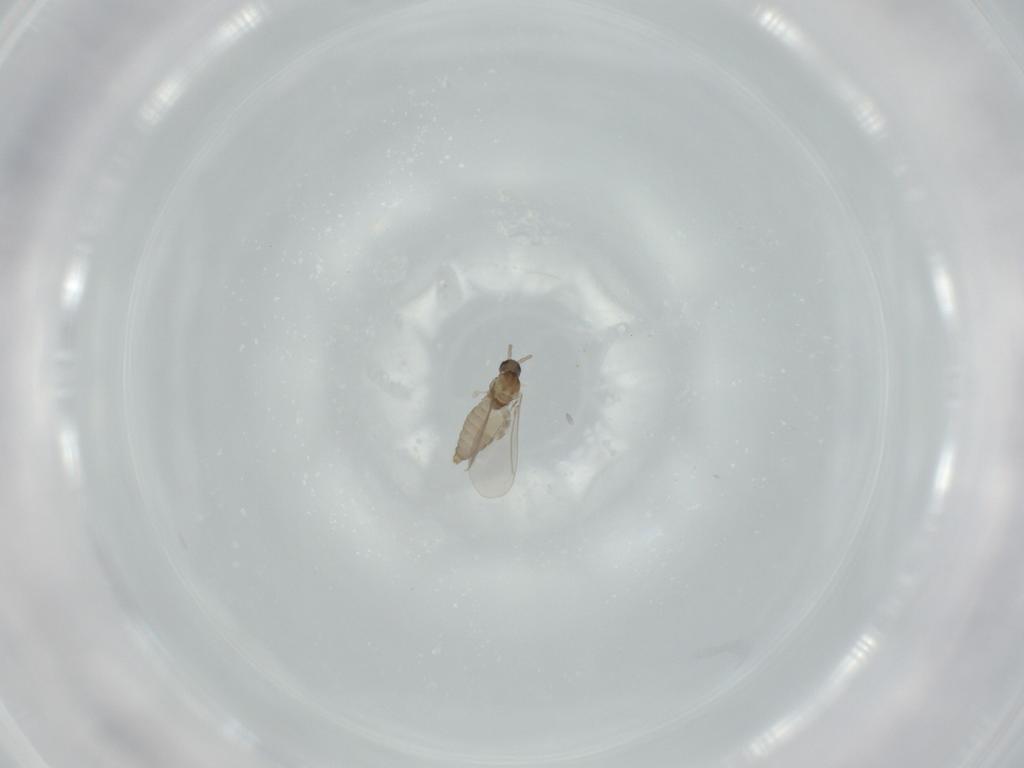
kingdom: Animalia
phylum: Arthropoda
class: Insecta
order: Diptera
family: Cecidomyiidae
